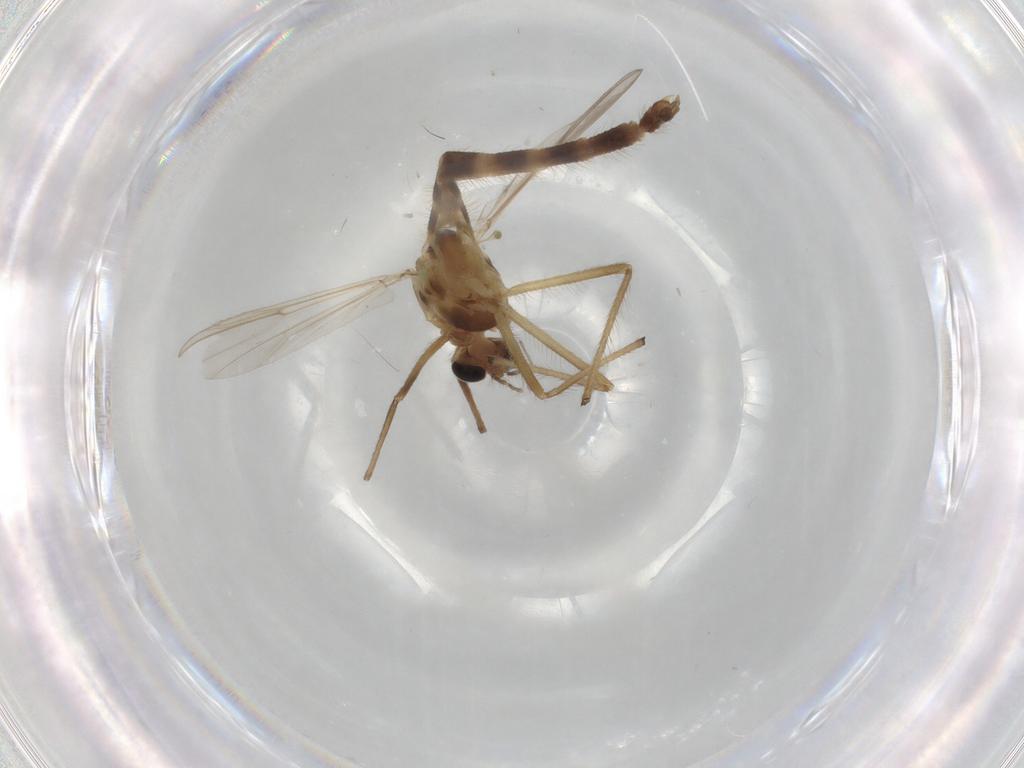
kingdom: Animalia
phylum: Arthropoda
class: Insecta
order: Diptera
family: Chironomidae
